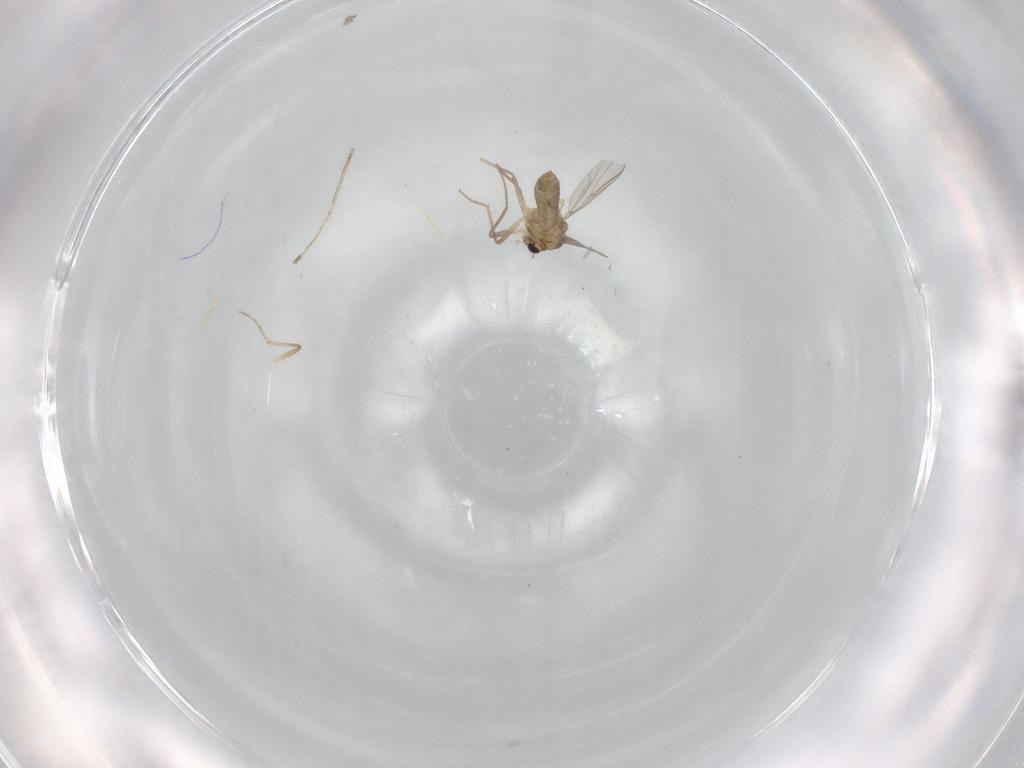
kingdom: Animalia
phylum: Arthropoda
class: Insecta
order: Diptera
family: Chironomidae
